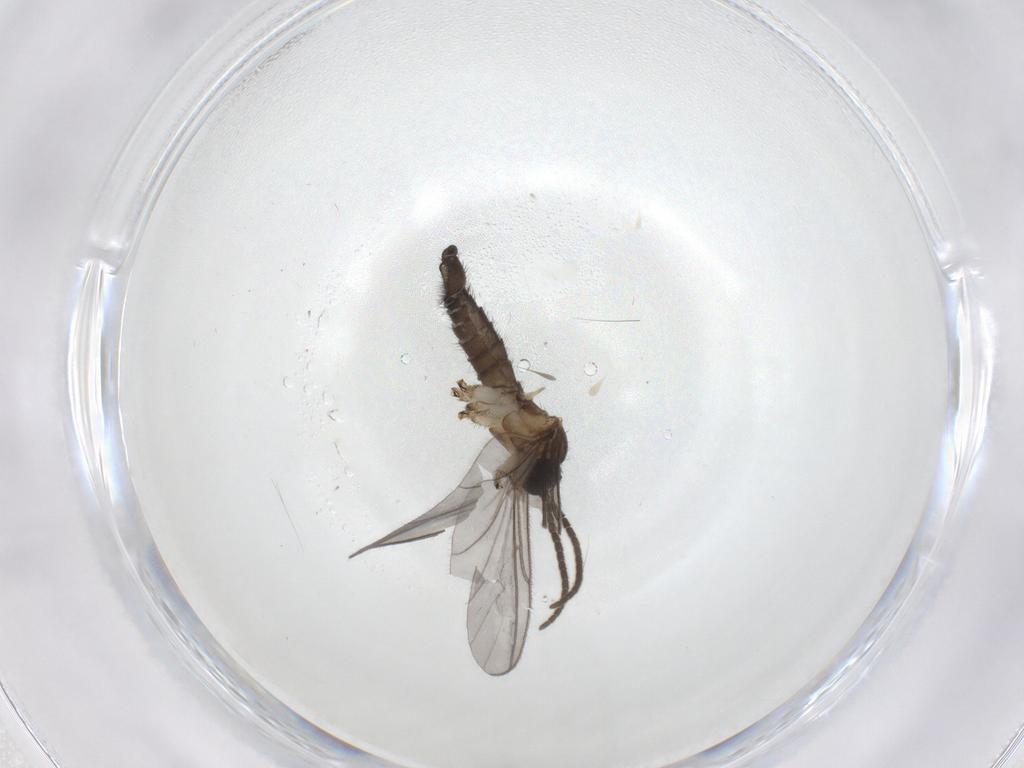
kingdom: Animalia
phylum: Arthropoda
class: Insecta
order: Diptera
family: Sciaridae
